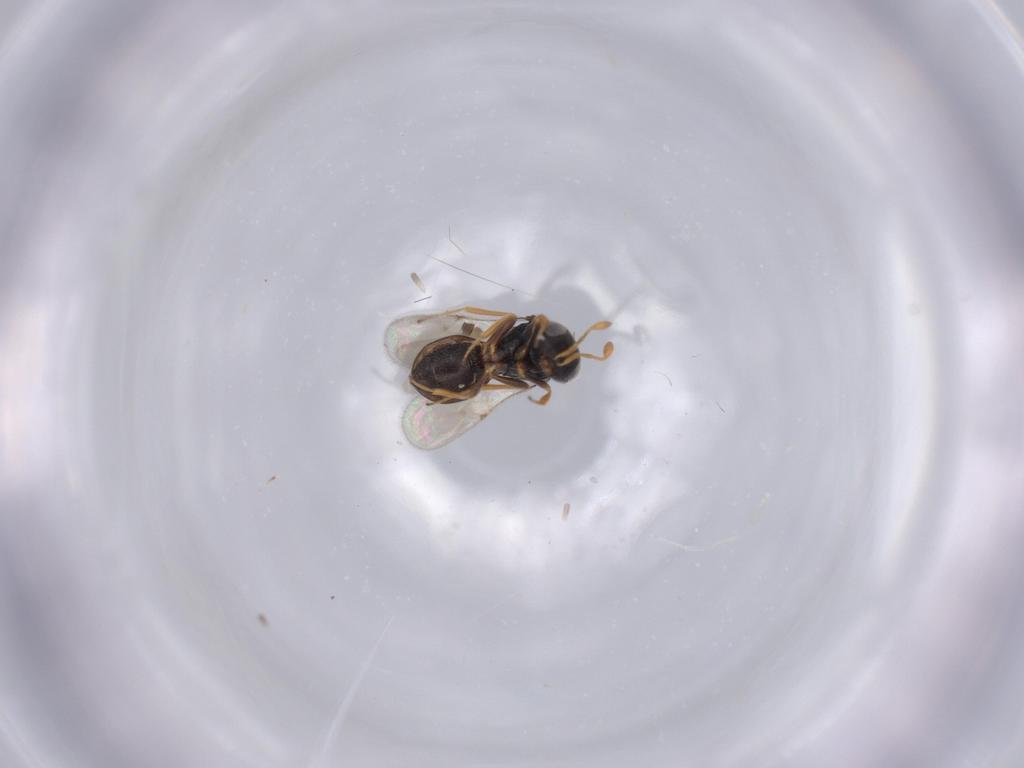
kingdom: Animalia
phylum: Arthropoda
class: Insecta
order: Hymenoptera
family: Scelionidae
